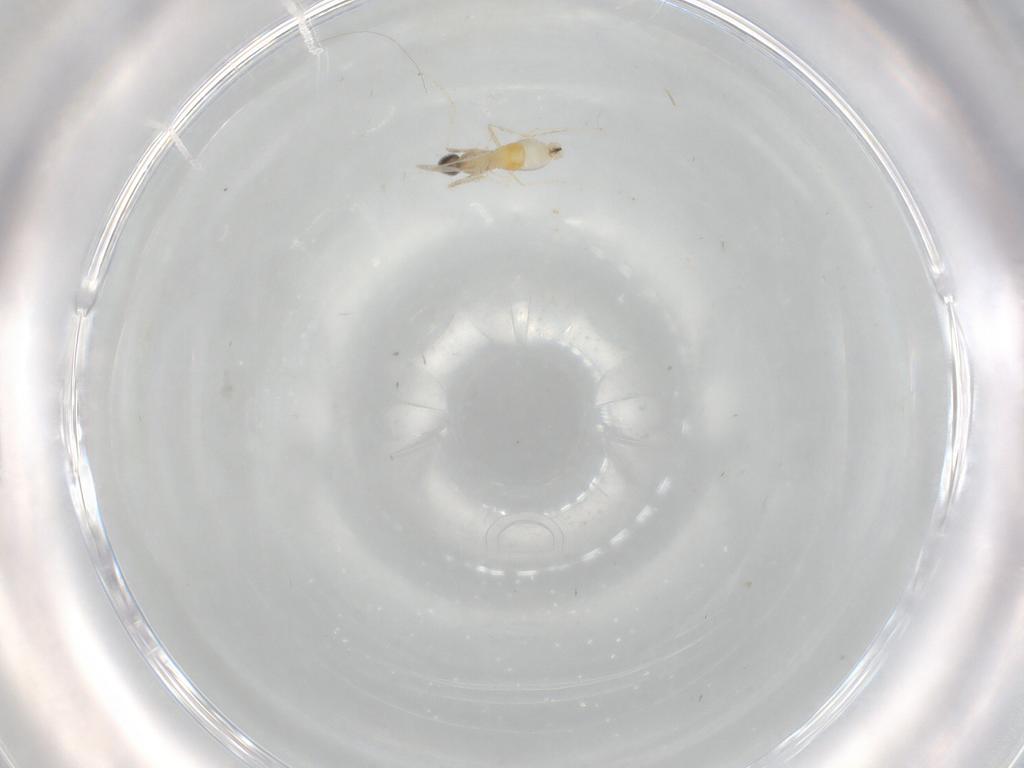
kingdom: Animalia
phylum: Arthropoda
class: Insecta
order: Diptera
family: Cecidomyiidae
